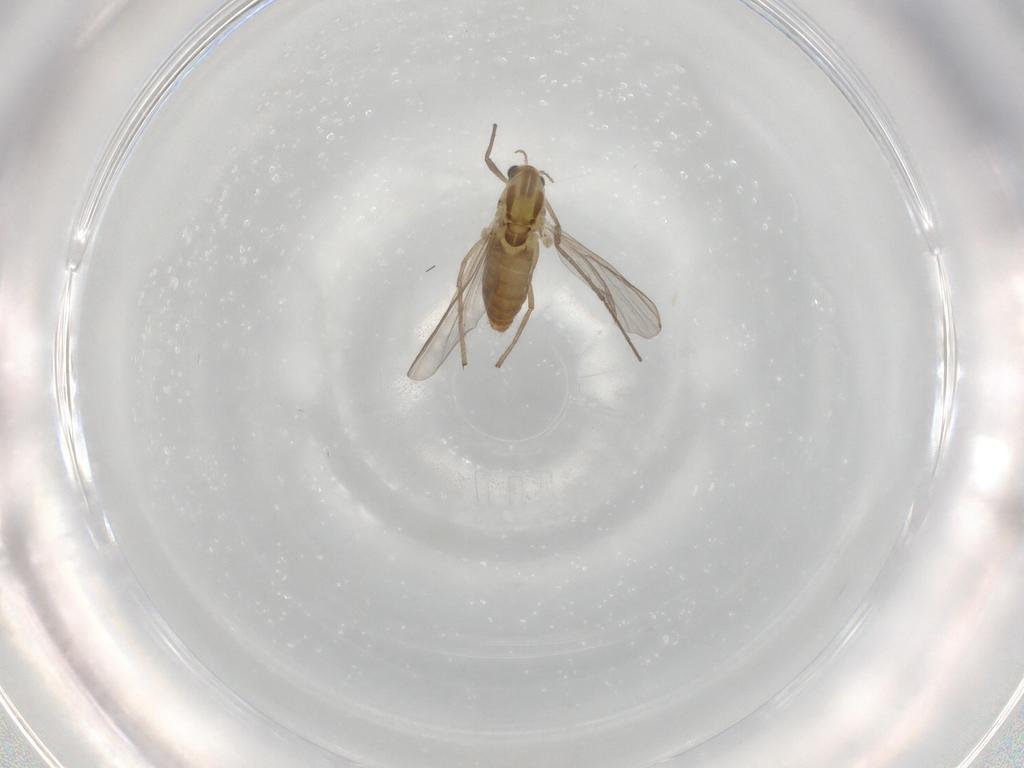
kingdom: Animalia
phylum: Arthropoda
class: Insecta
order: Diptera
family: Chironomidae
